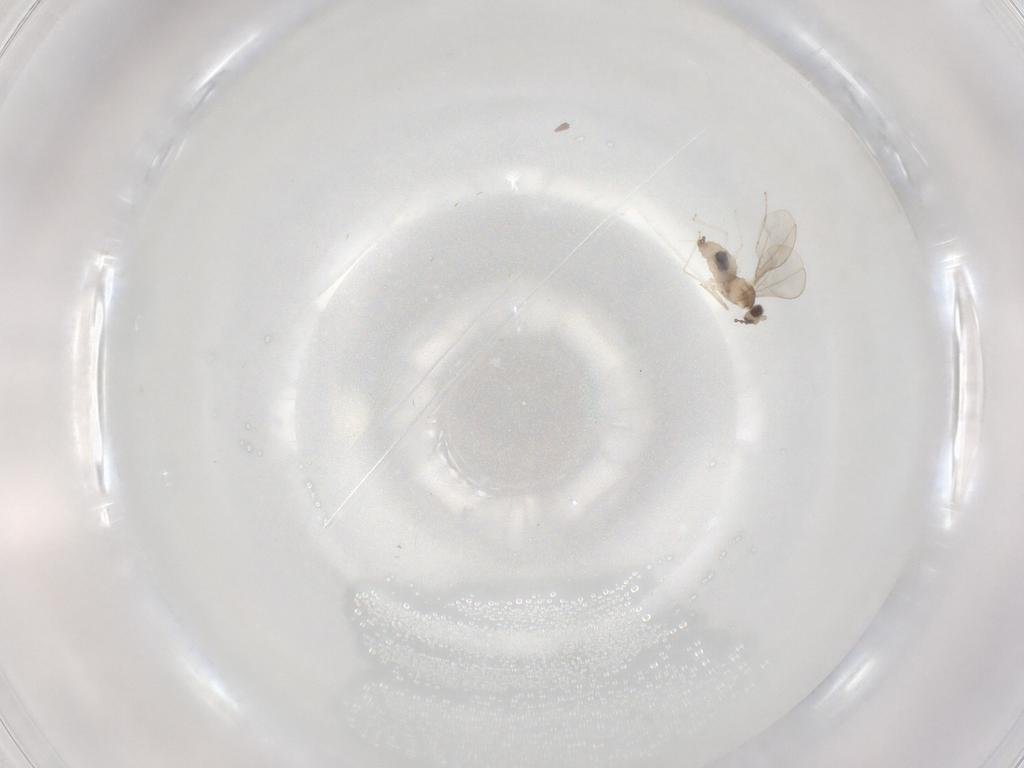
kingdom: Animalia
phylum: Arthropoda
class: Insecta
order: Diptera
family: Cecidomyiidae
